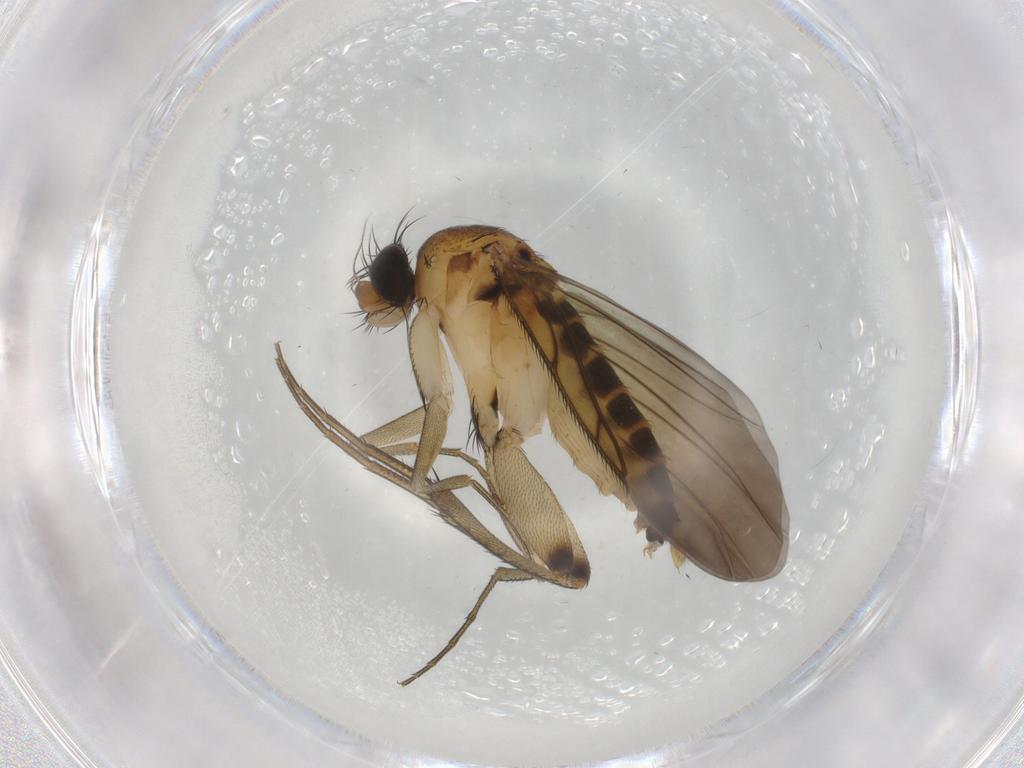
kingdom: Animalia
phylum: Arthropoda
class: Insecta
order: Diptera
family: Phoridae
